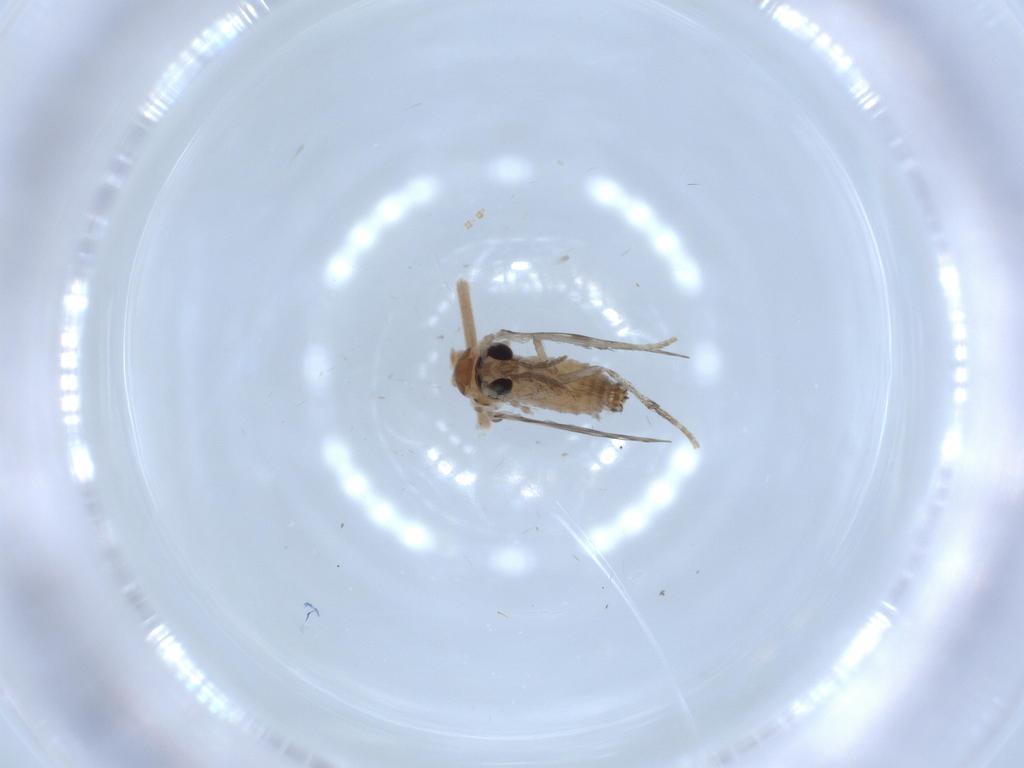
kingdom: Animalia
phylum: Arthropoda
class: Insecta
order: Diptera
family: Psychodidae
